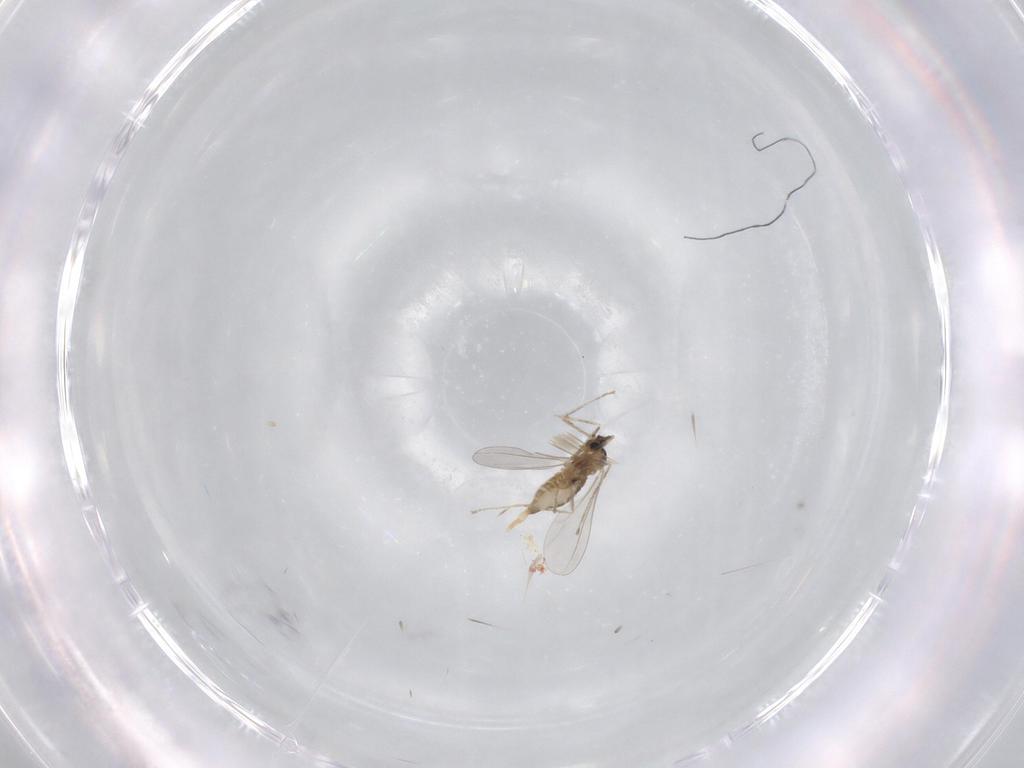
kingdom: Animalia
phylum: Arthropoda
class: Insecta
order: Diptera
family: Cecidomyiidae
